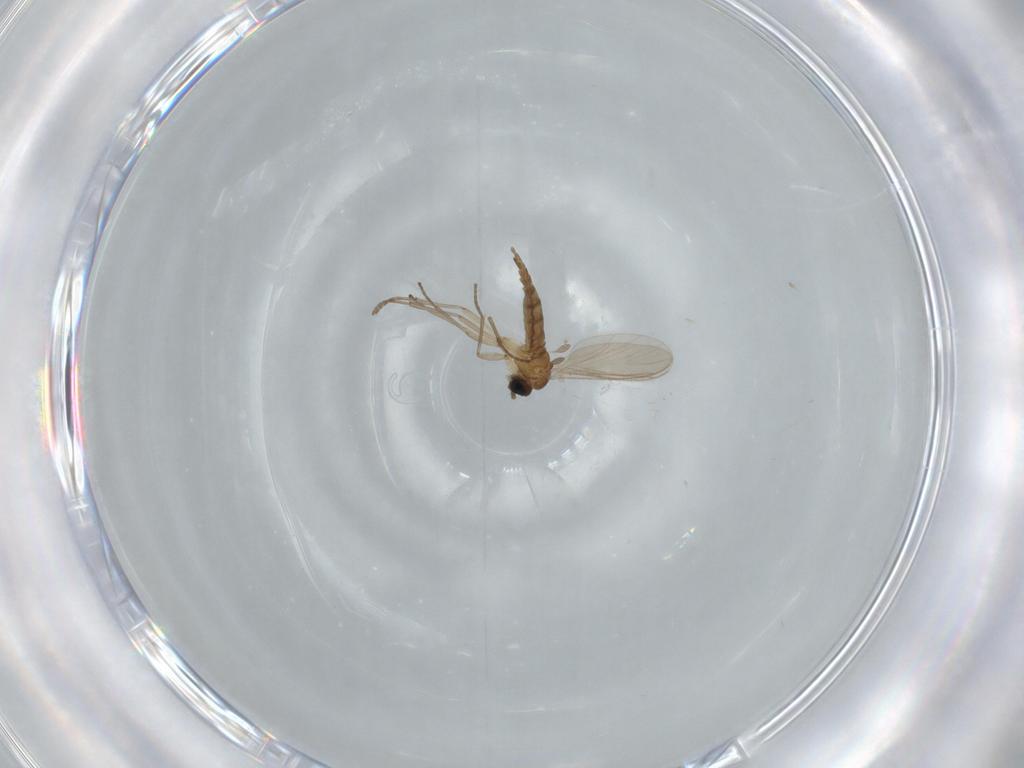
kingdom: Animalia
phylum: Arthropoda
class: Insecta
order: Diptera
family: Sciaridae
